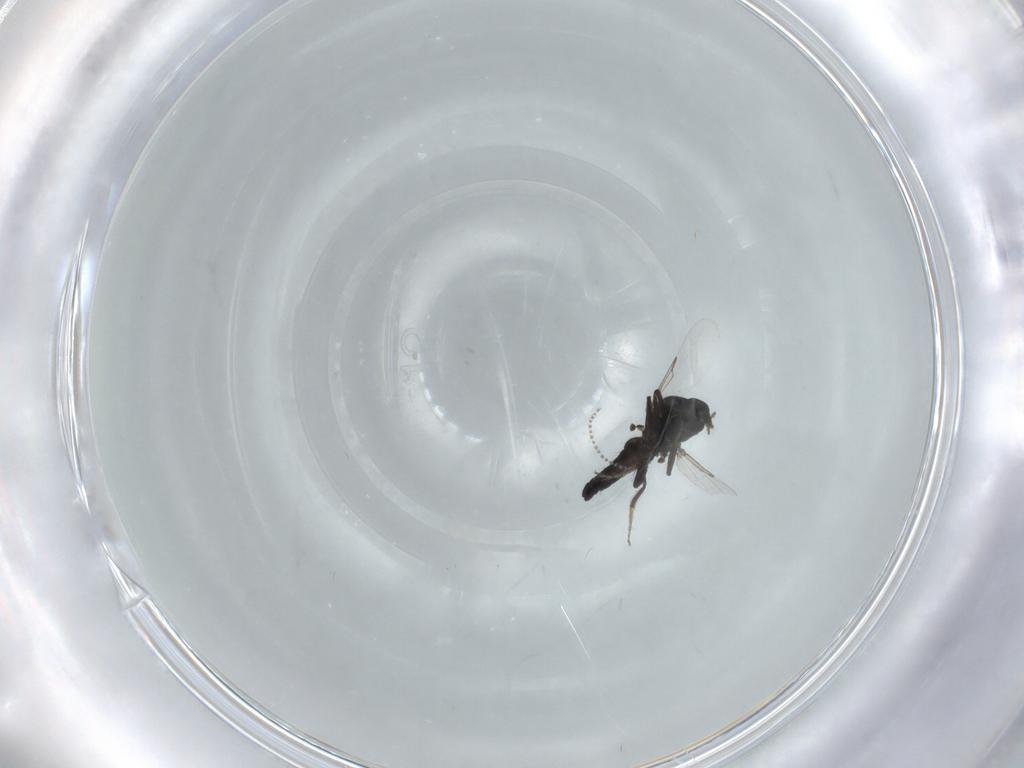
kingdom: Animalia
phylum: Arthropoda
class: Insecta
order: Diptera
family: Ceratopogonidae
